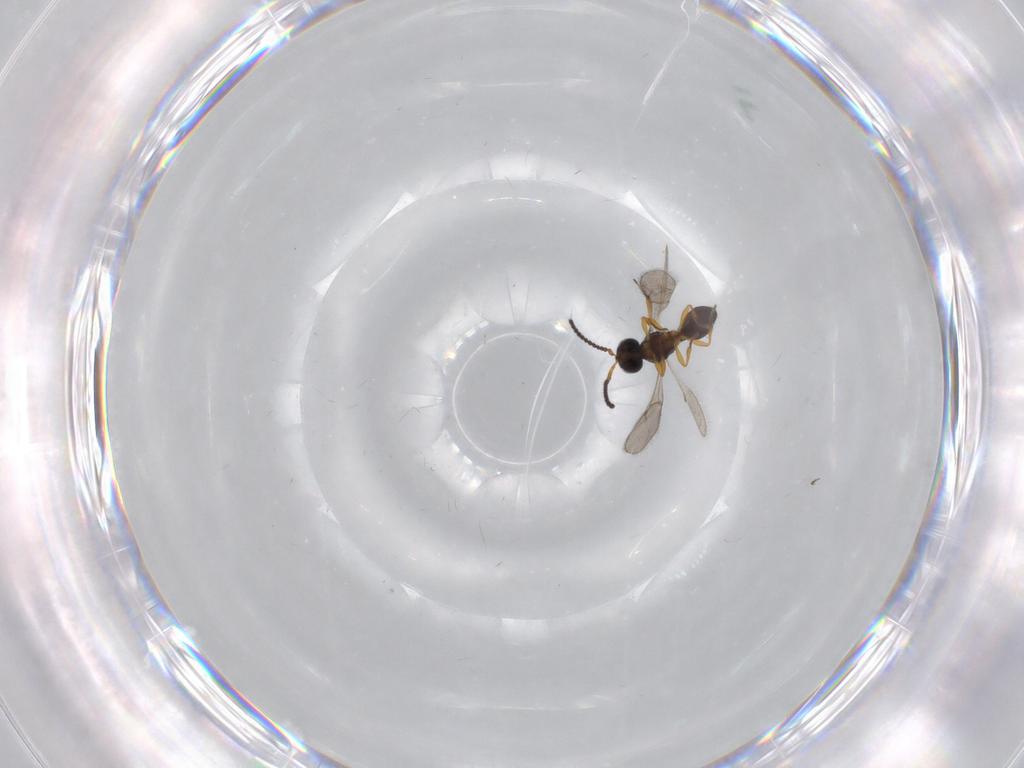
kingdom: Animalia
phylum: Arthropoda
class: Insecta
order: Hymenoptera
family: Scelionidae
